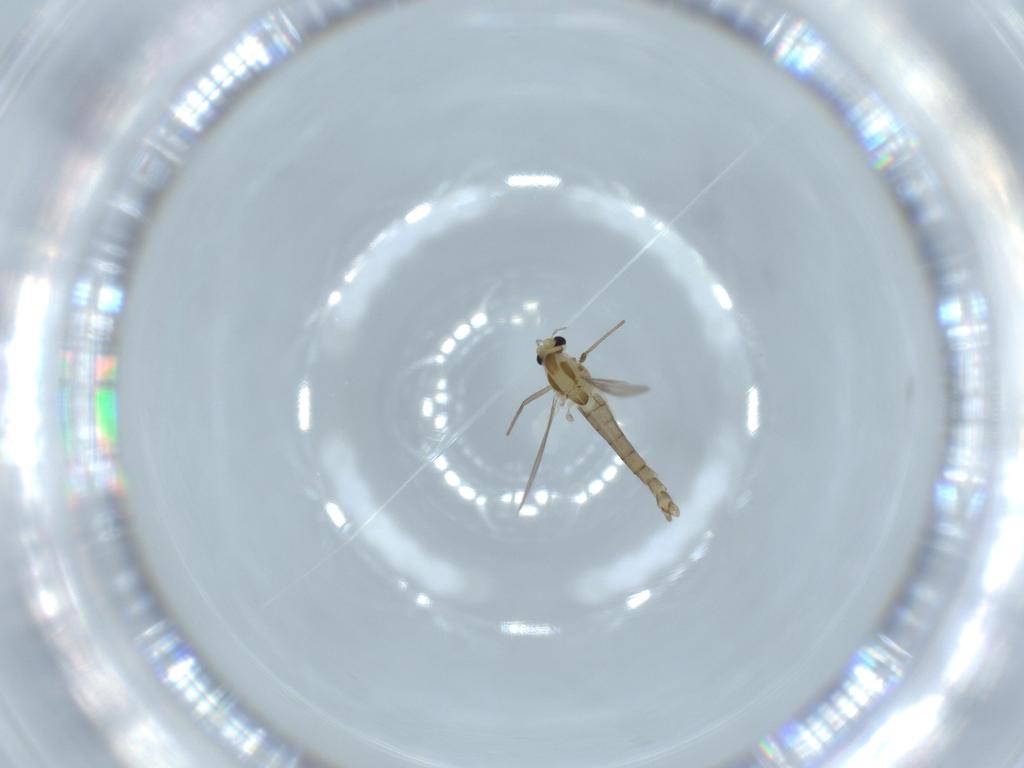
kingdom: Animalia
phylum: Arthropoda
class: Insecta
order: Diptera
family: Chironomidae
